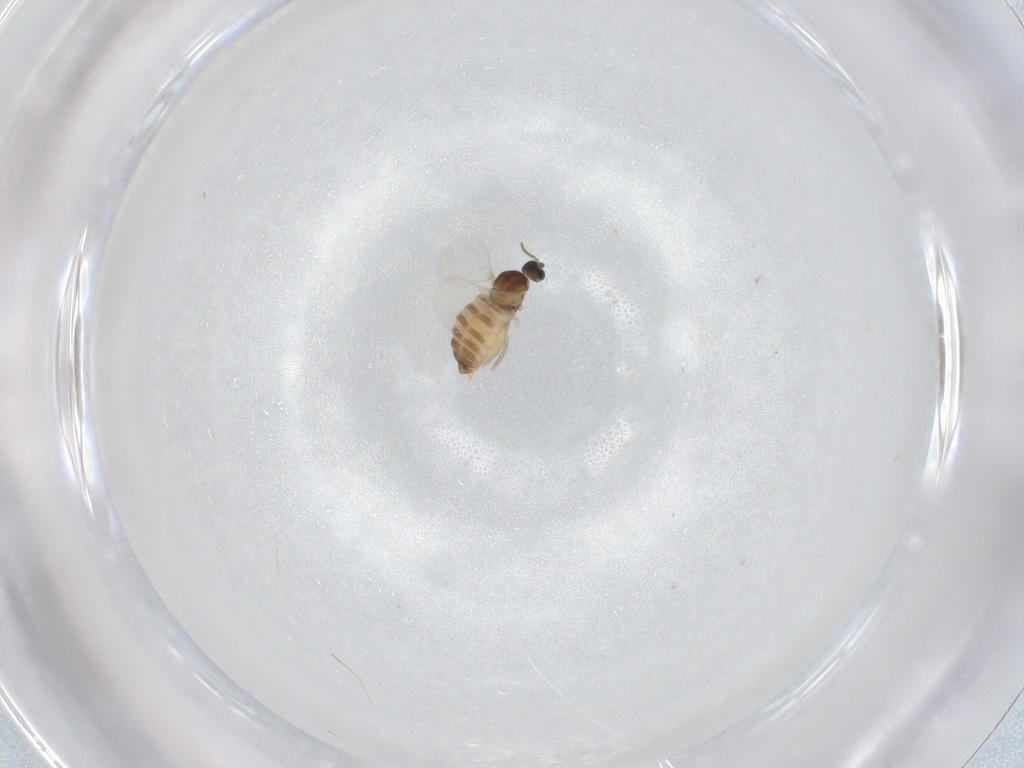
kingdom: Animalia
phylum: Arthropoda
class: Insecta
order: Diptera
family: Cecidomyiidae
